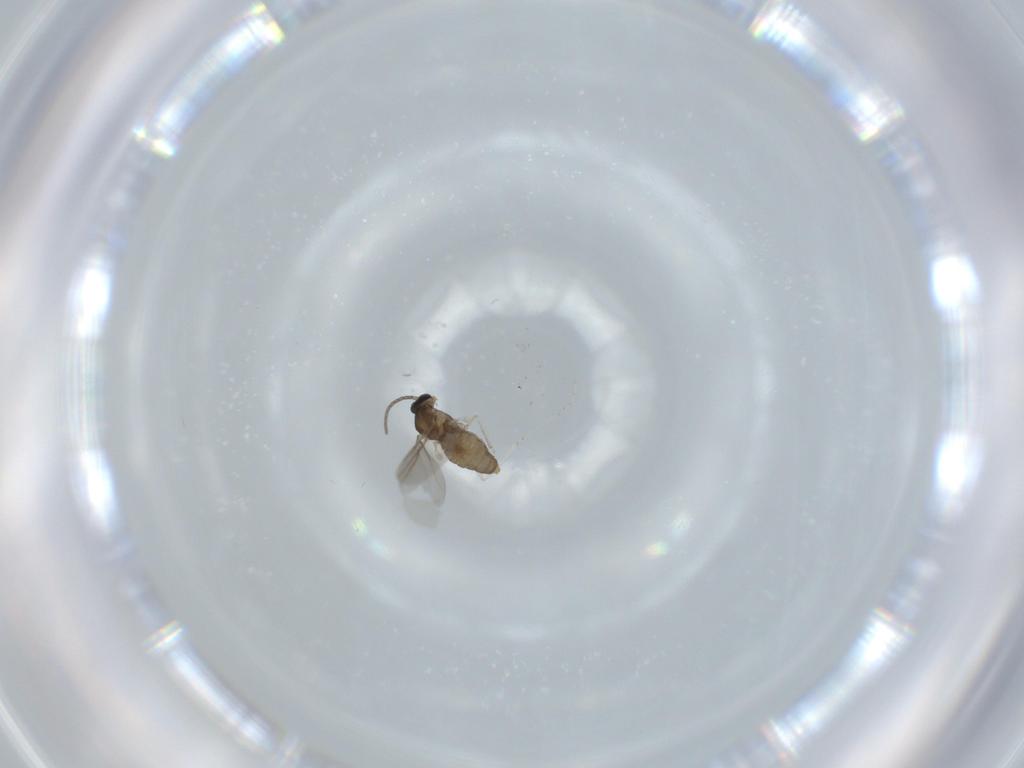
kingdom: Animalia
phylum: Arthropoda
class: Insecta
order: Diptera
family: Cecidomyiidae
